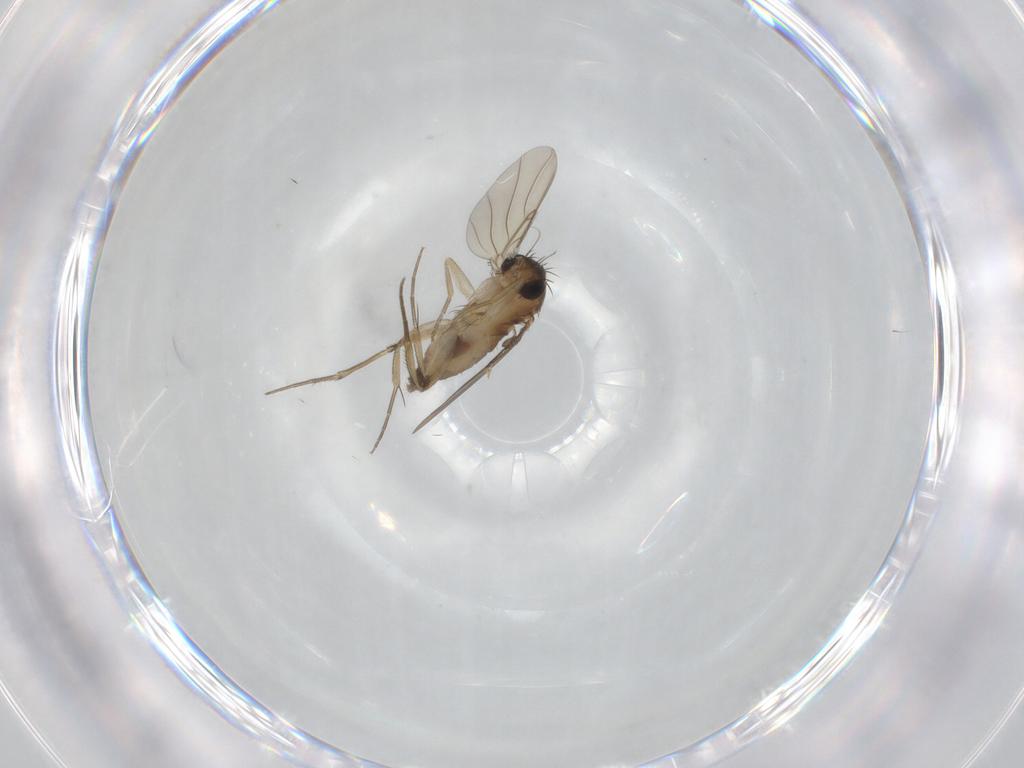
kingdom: Animalia
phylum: Arthropoda
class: Insecta
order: Diptera
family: Phoridae
